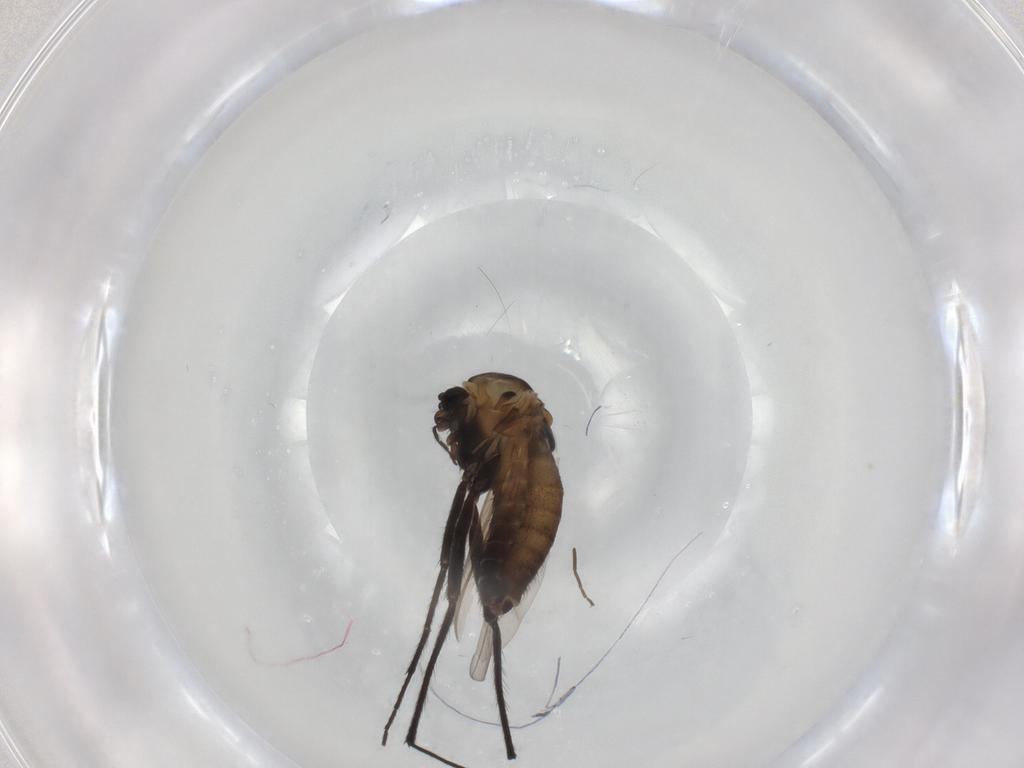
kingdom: Animalia
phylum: Arthropoda
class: Insecta
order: Diptera
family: Chironomidae
